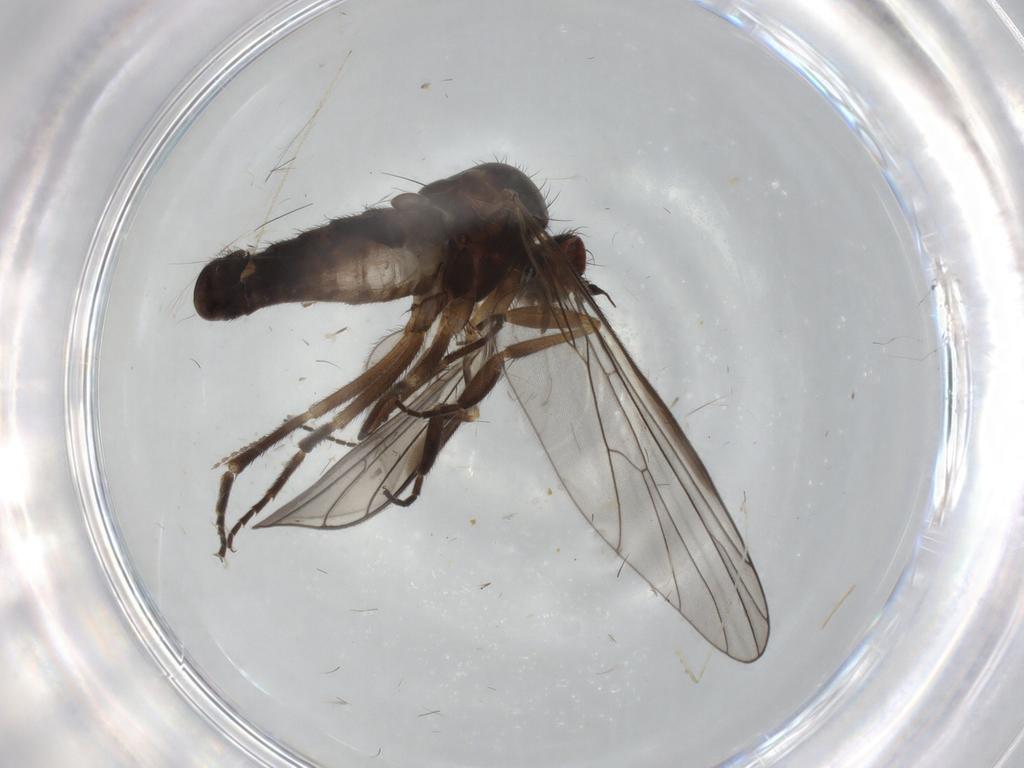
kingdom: Animalia
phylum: Arthropoda
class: Insecta
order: Diptera
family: Empididae
